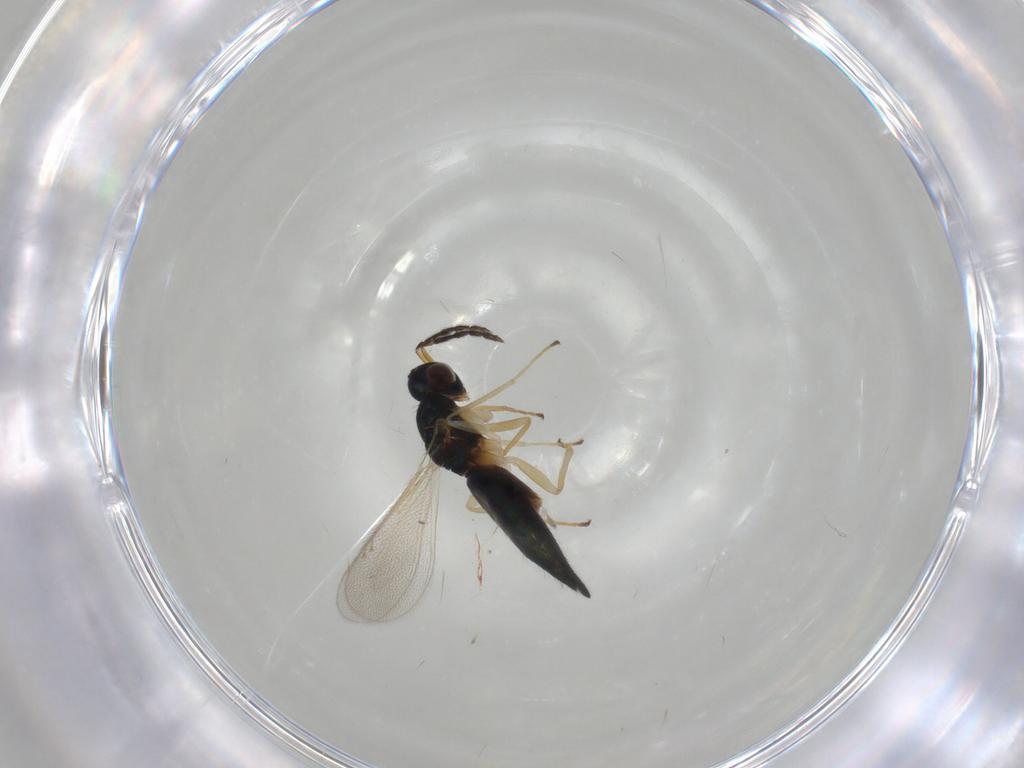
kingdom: Animalia
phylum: Arthropoda
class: Insecta
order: Hymenoptera
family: Eulophidae
